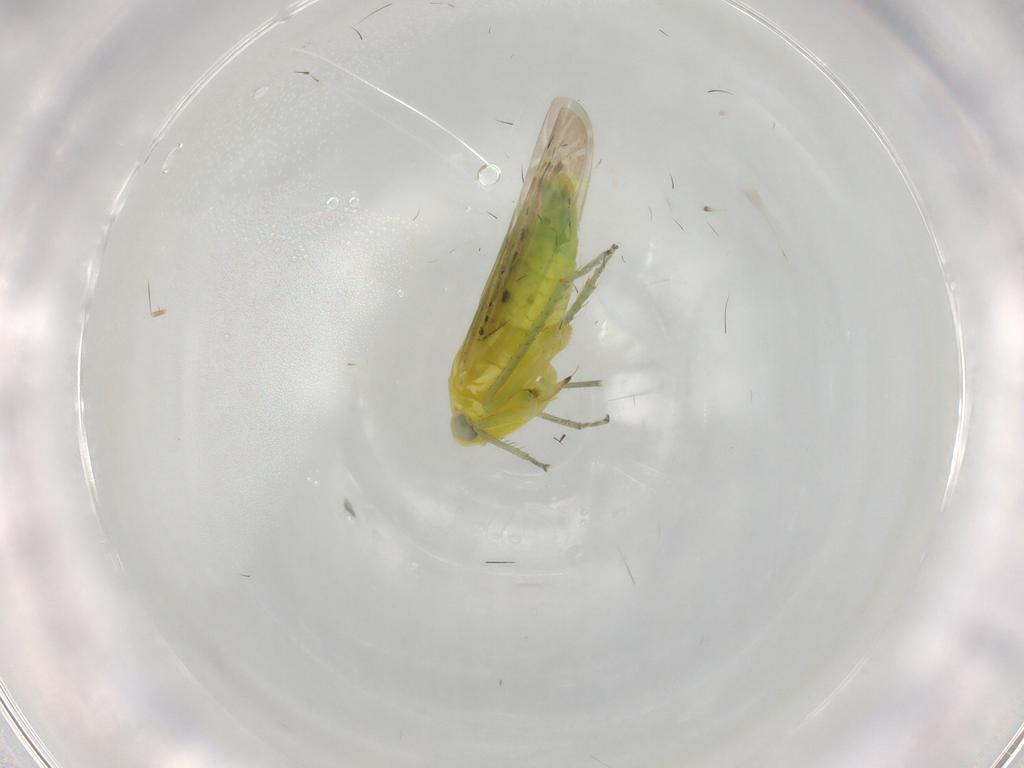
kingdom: Animalia
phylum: Arthropoda
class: Insecta
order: Hemiptera
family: Cicadellidae
